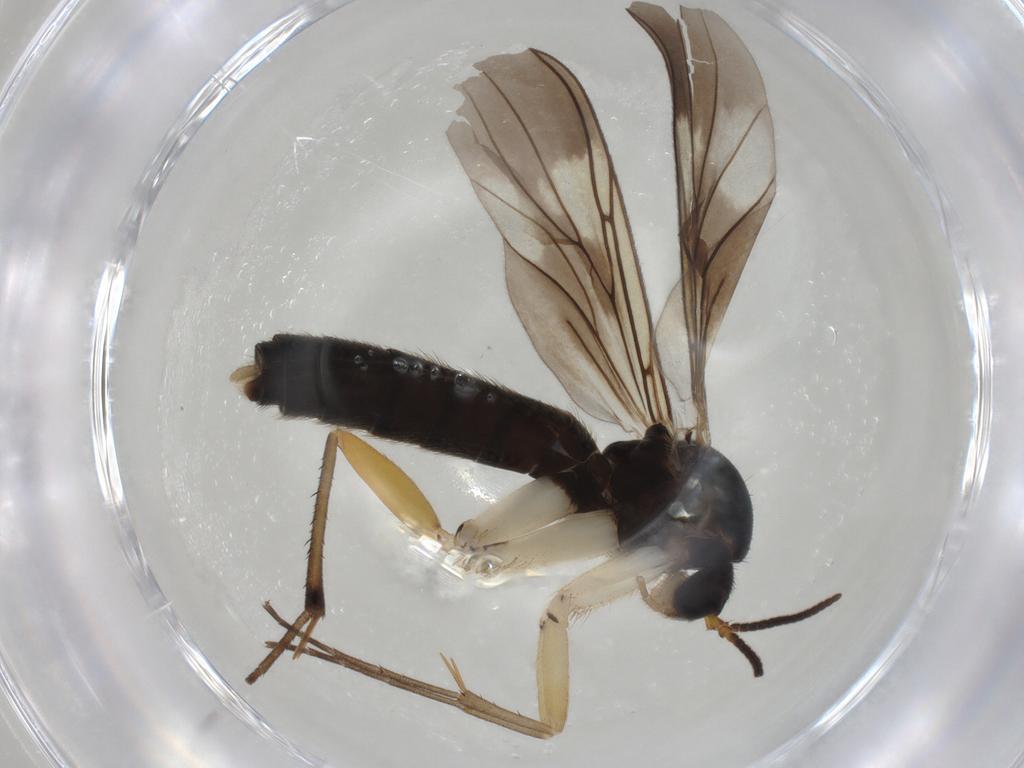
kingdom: Animalia
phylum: Arthropoda
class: Insecta
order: Diptera
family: Mycetophilidae
